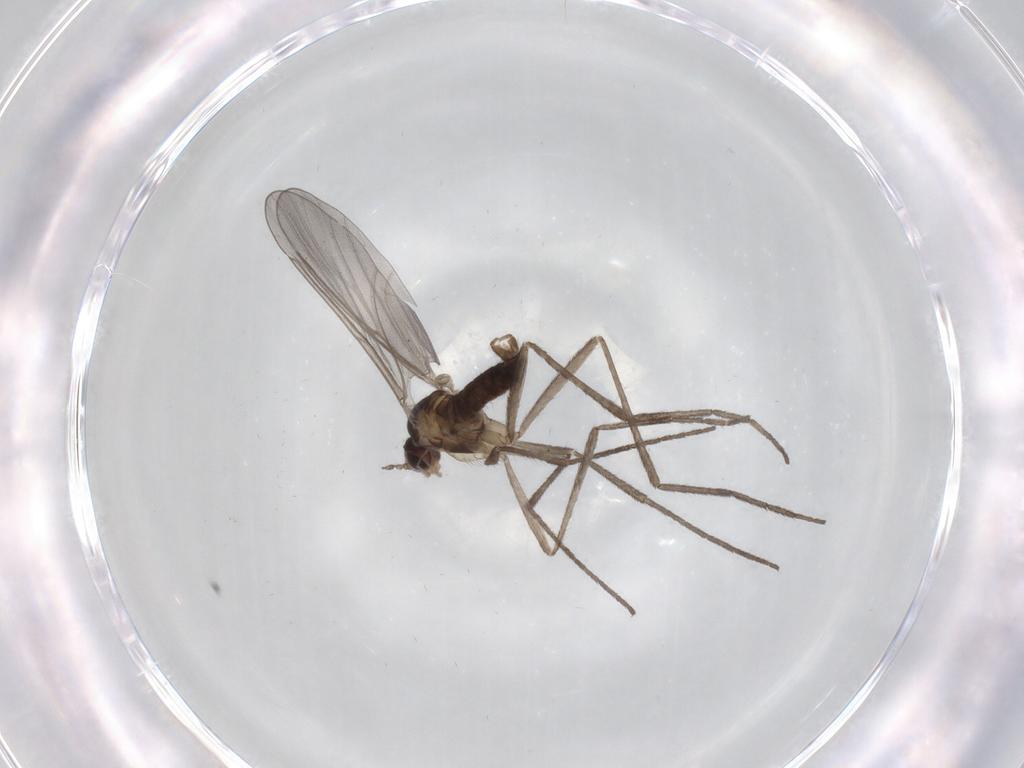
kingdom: Animalia
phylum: Arthropoda
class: Insecta
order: Diptera
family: Cecidomyiidae
